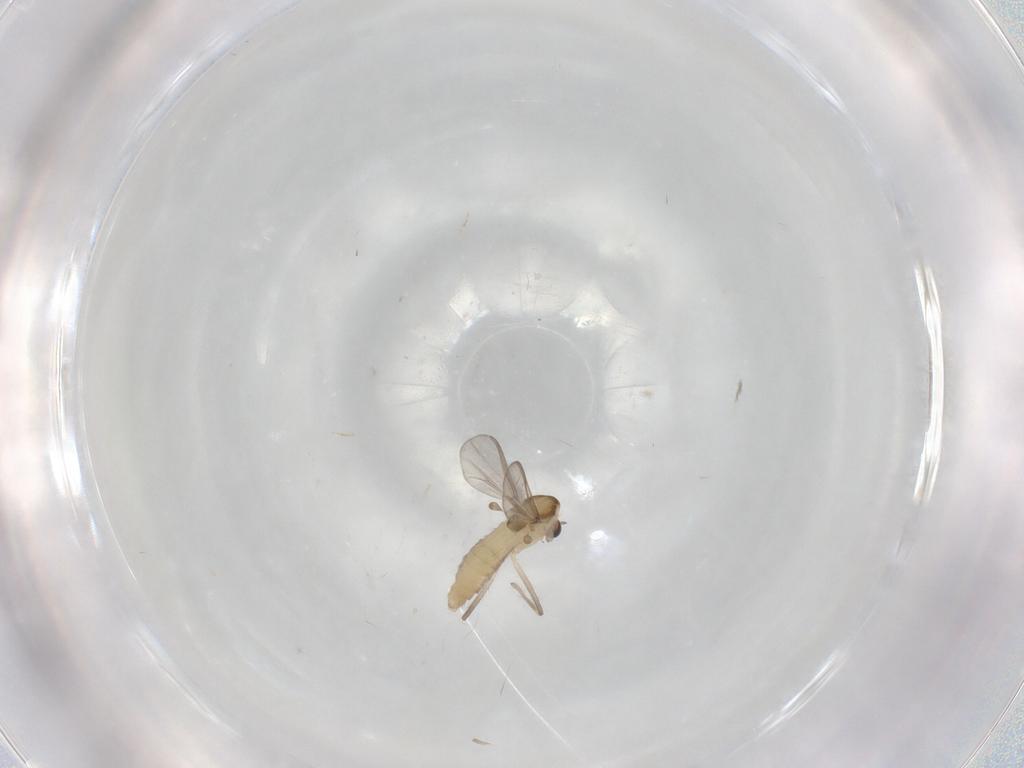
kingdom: Animalia
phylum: Arthropoda
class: Insecta
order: Diptera
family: Chironomidae
